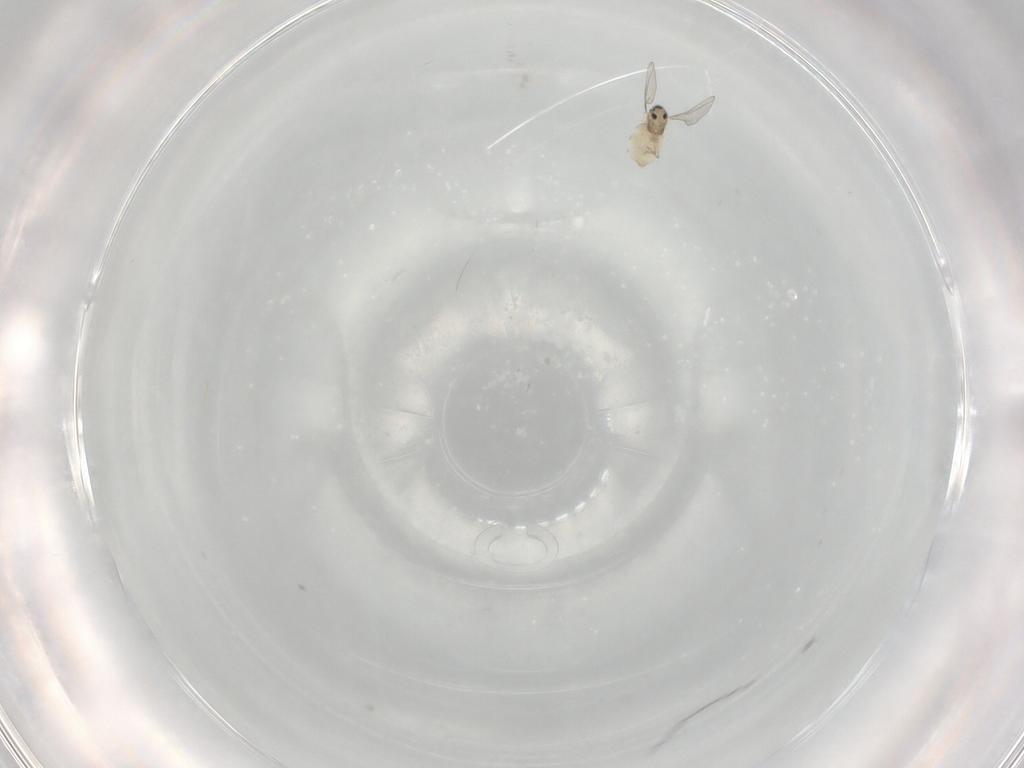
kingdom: Animalia
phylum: Arthropoda
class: Insecta
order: Diptera
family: Cecidomyiidae
